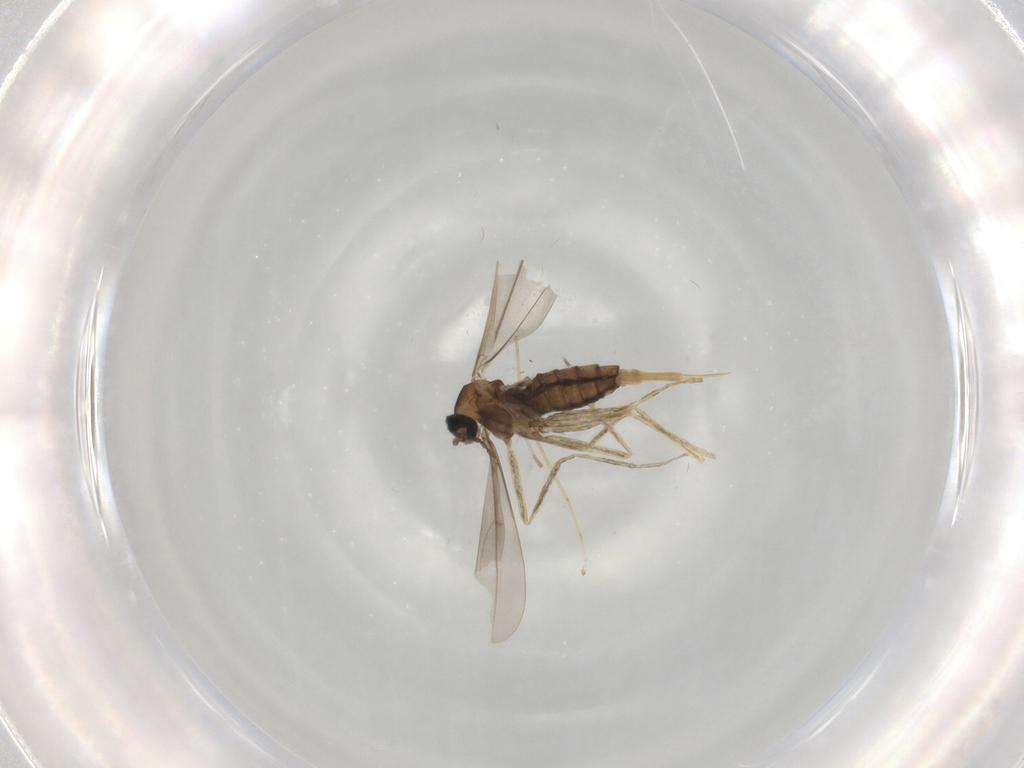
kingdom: Animalia
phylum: Arthropoda
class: Insecta
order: Diptera
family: Cecidomyiidae
